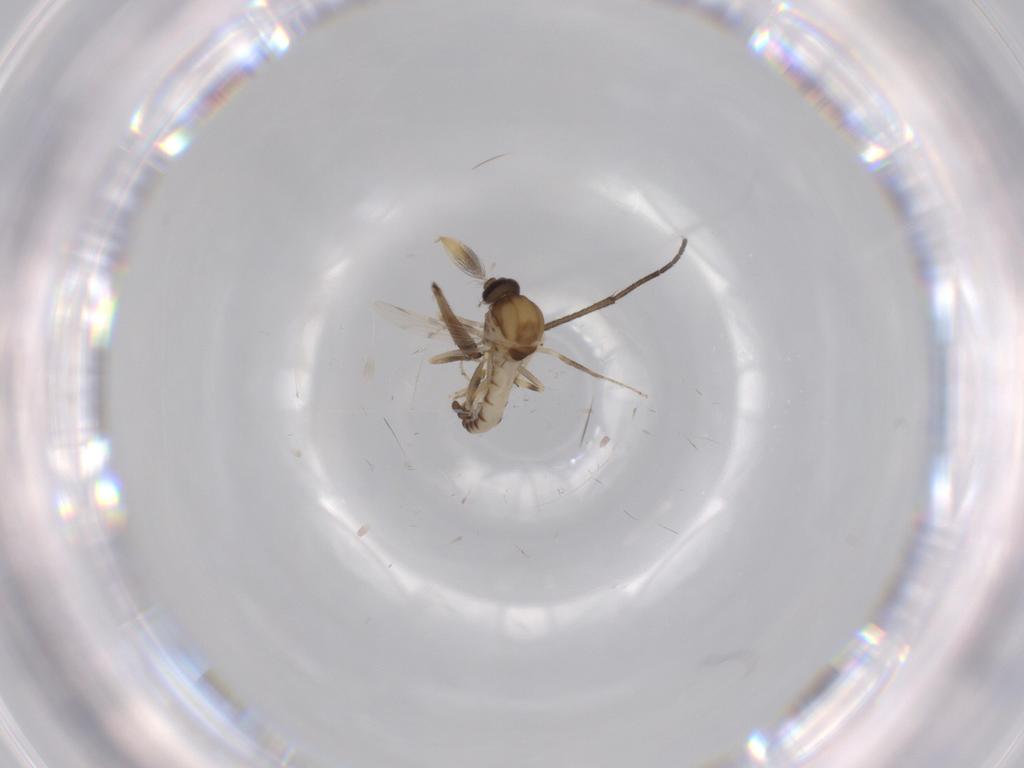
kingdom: Animalia
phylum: Arthropoda
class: Insecta
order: Diptera
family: Ceratopogonidae
